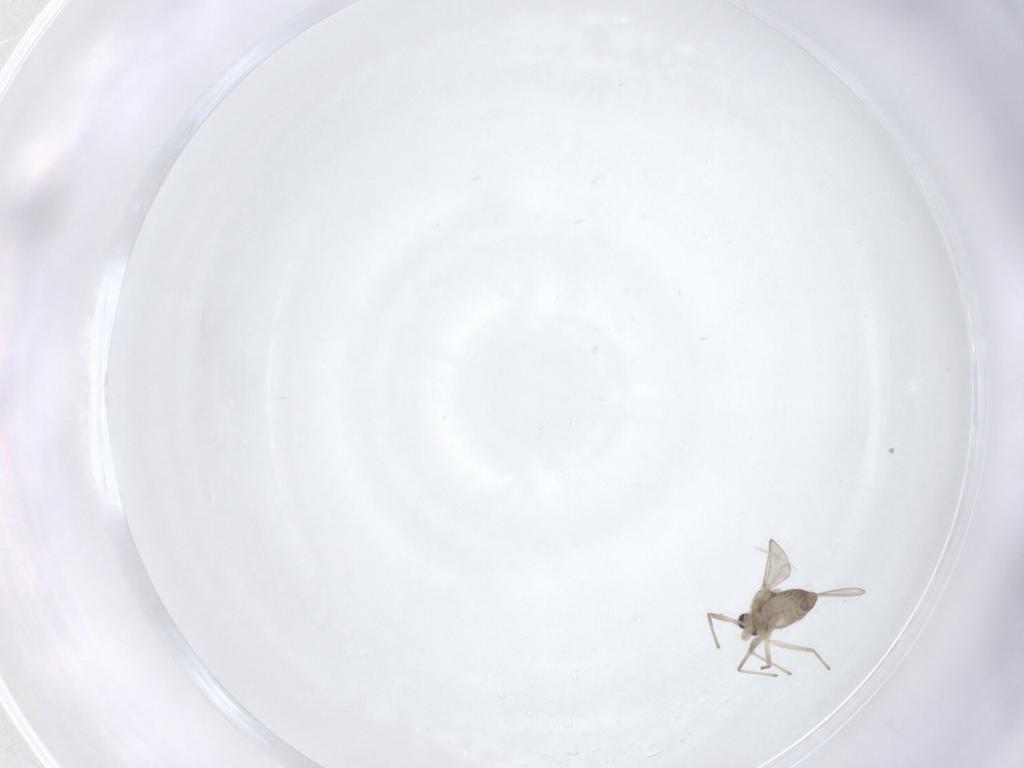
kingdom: Animalia
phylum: Arthropoda
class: Insecta
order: Diptera
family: Chironomidae
